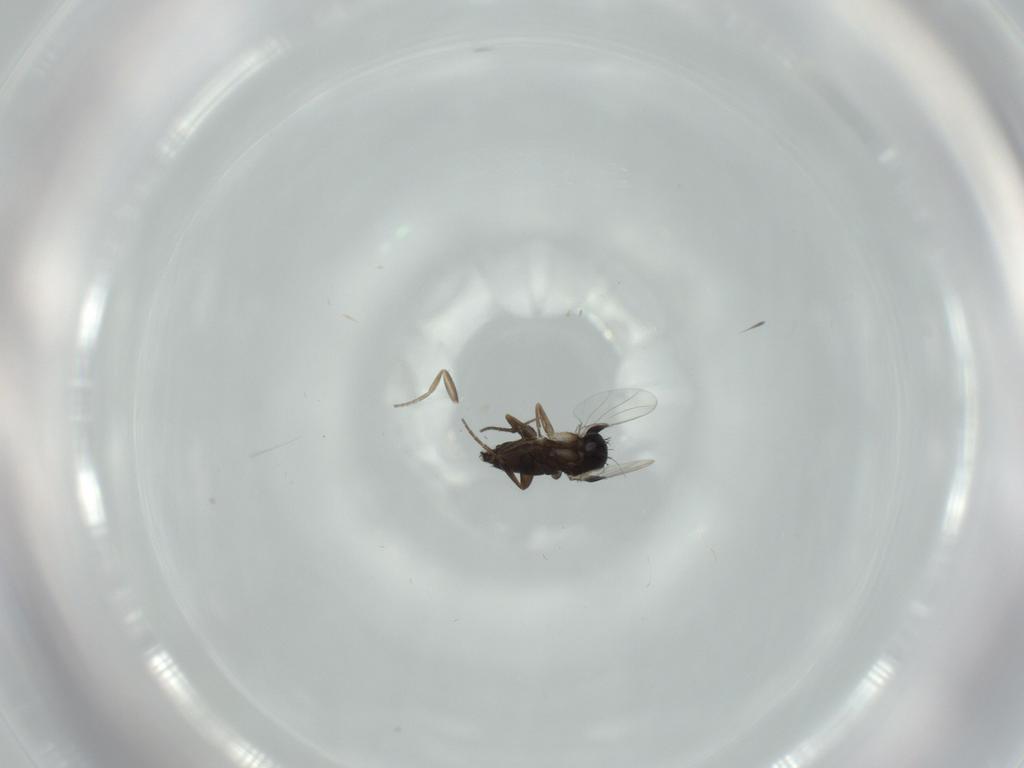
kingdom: Animalia
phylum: Arthropoda
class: Insecta
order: Diptera
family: Phoridae
